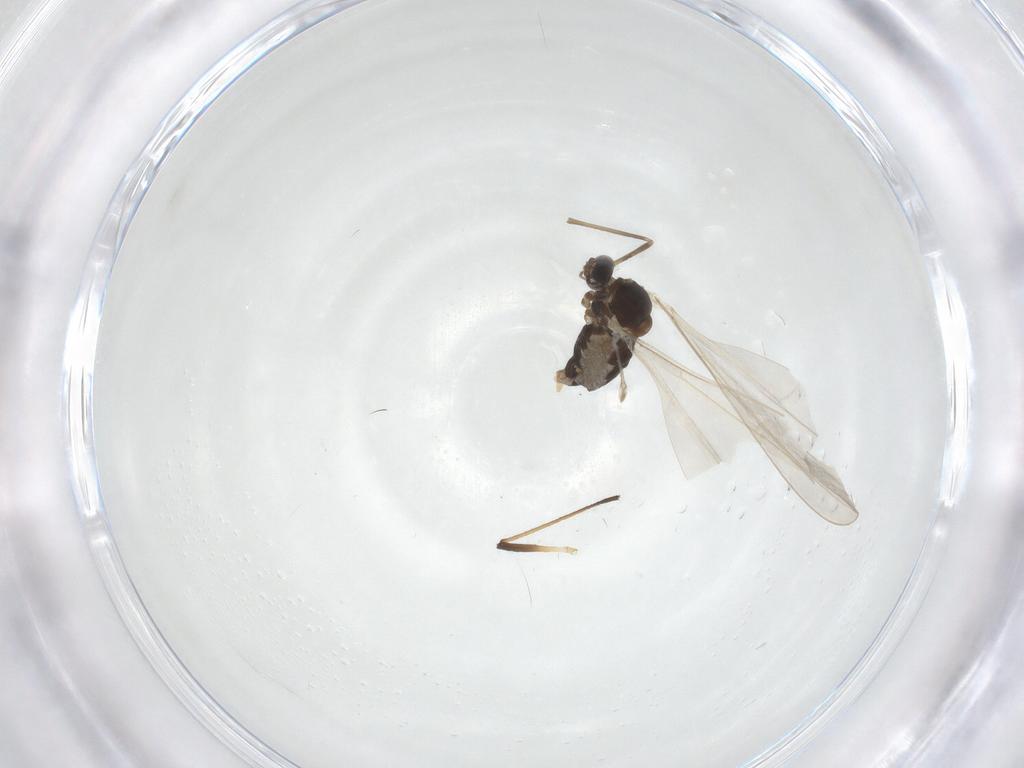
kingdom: Animalia
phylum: Arthropoda
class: Insecta
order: Diptera
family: Cecidomyiidae
